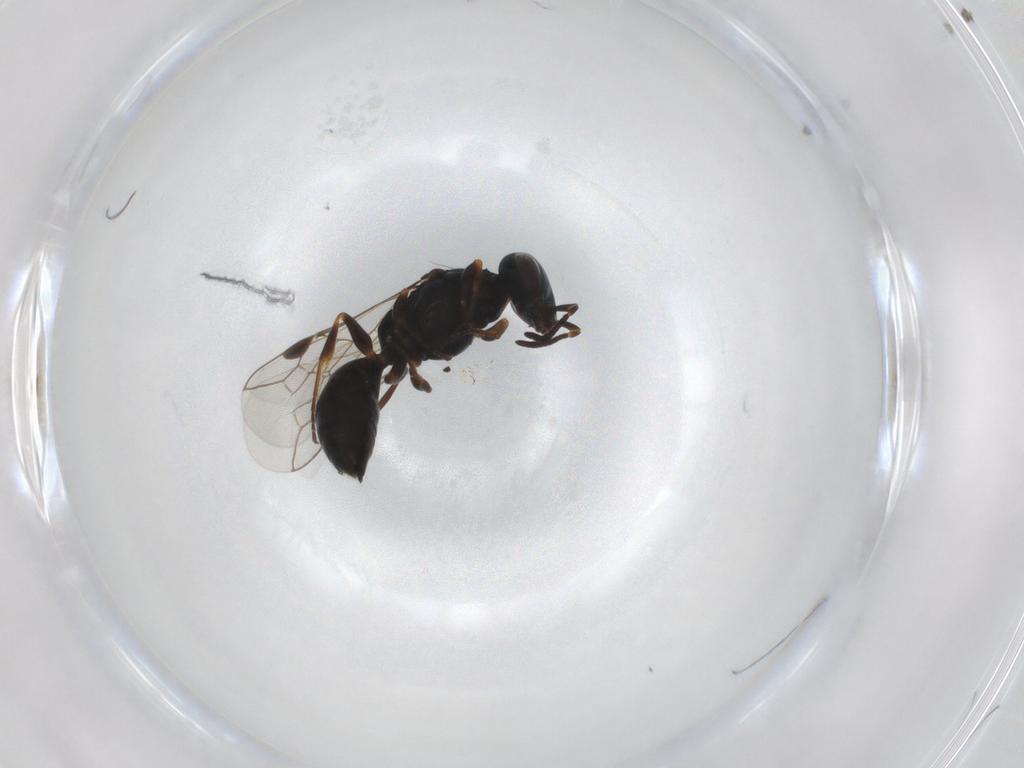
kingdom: Animalia
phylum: Arthropoda
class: Insecta
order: Hymenoptera
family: Pemphredonidae
